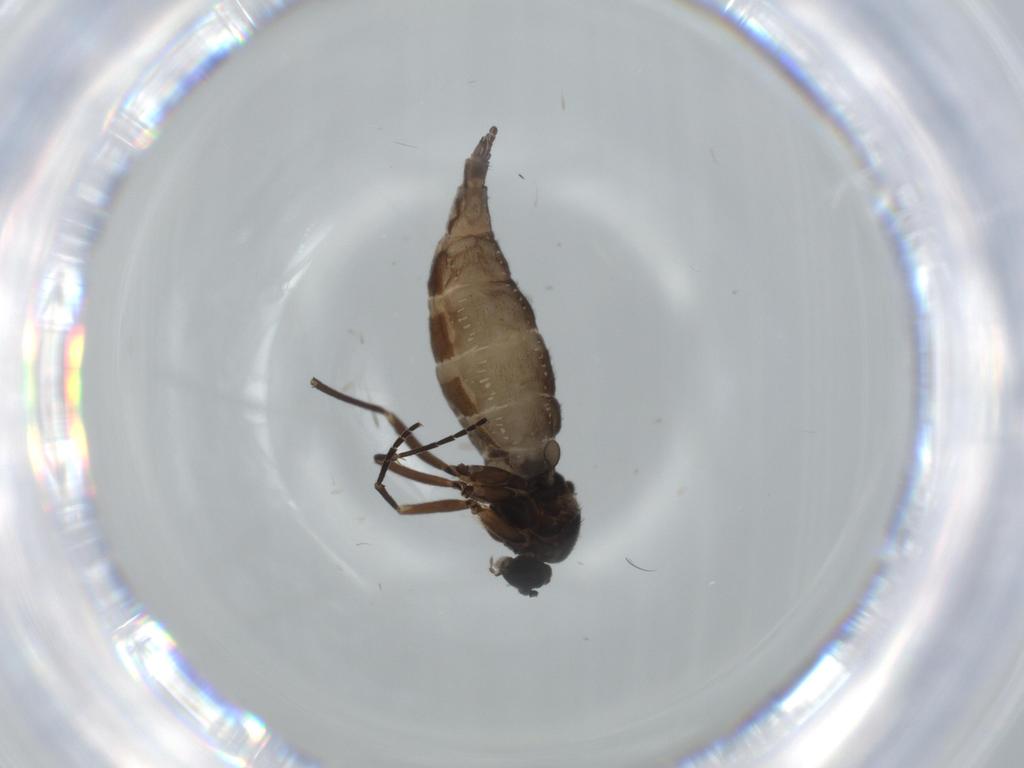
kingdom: Animalia
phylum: Arthropoda
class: Insecta
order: Diptera
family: Sciaridae
